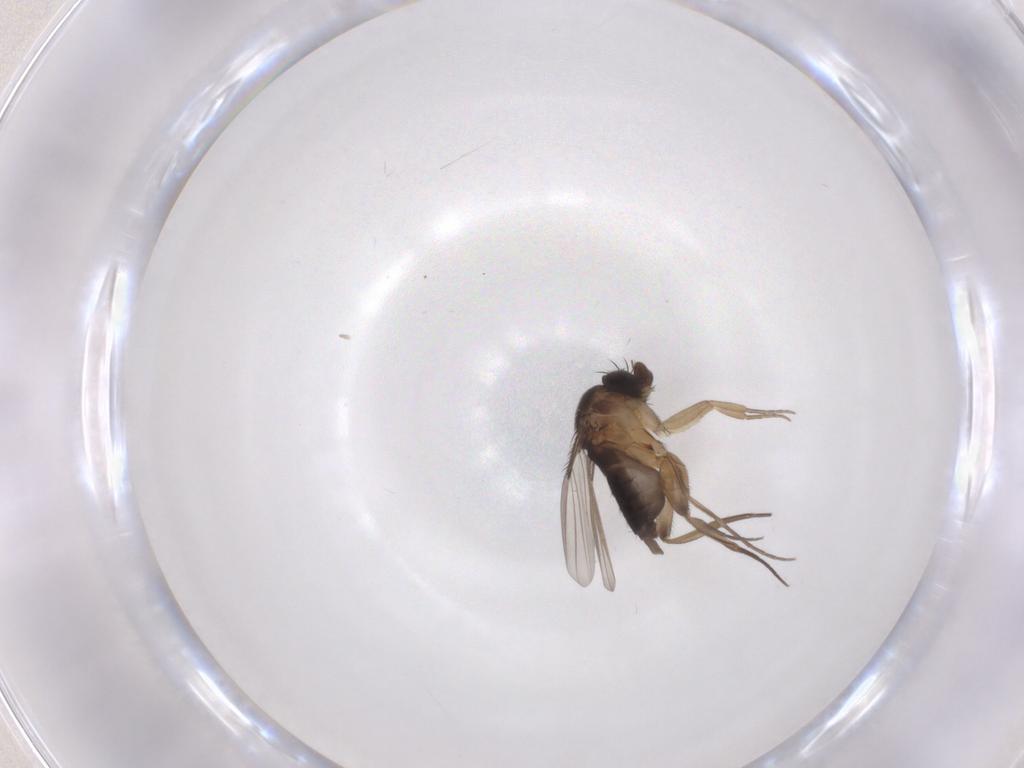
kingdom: Animalia
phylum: Arthropoda
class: Insecta
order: Diptera
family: Phoridae
